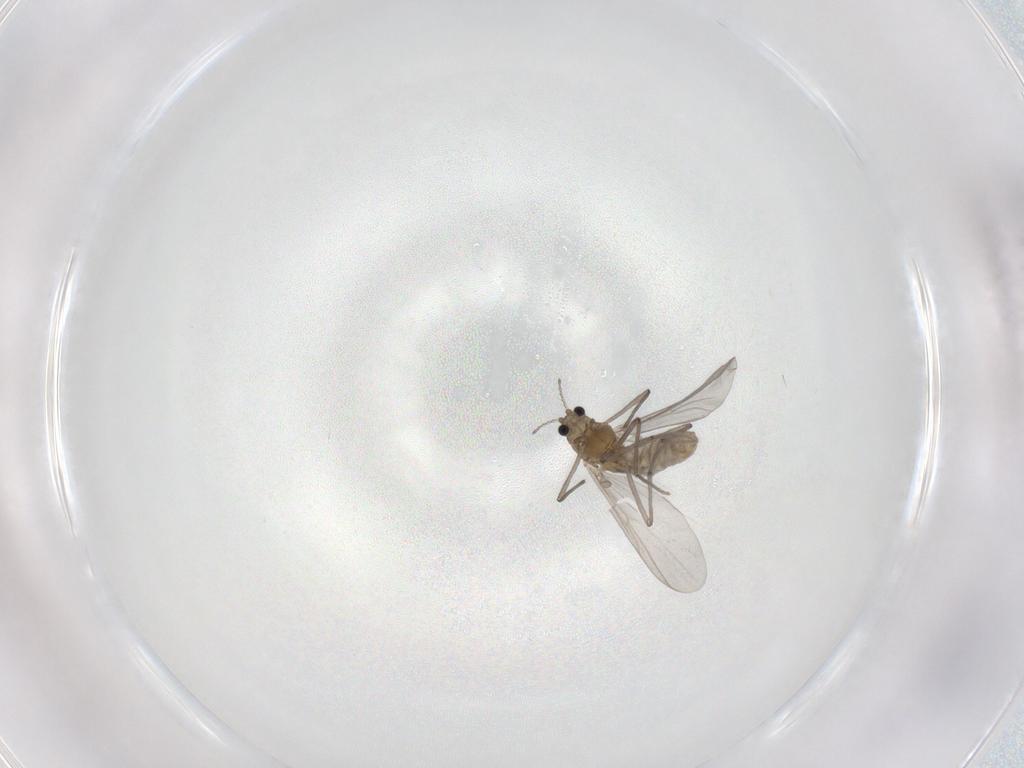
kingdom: Animalia
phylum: Arthropoda
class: Insecta
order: Diptera
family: Chironomidae
